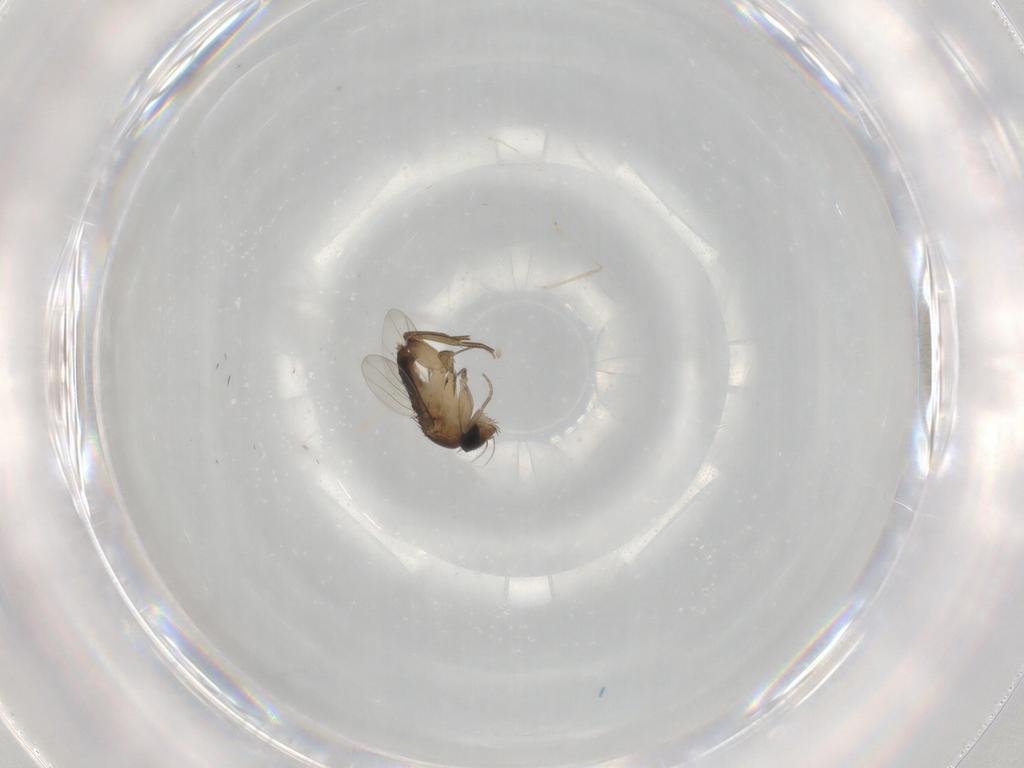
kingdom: Animalia
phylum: Arthropoda
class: Insecta
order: Diptera
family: Phoridae
